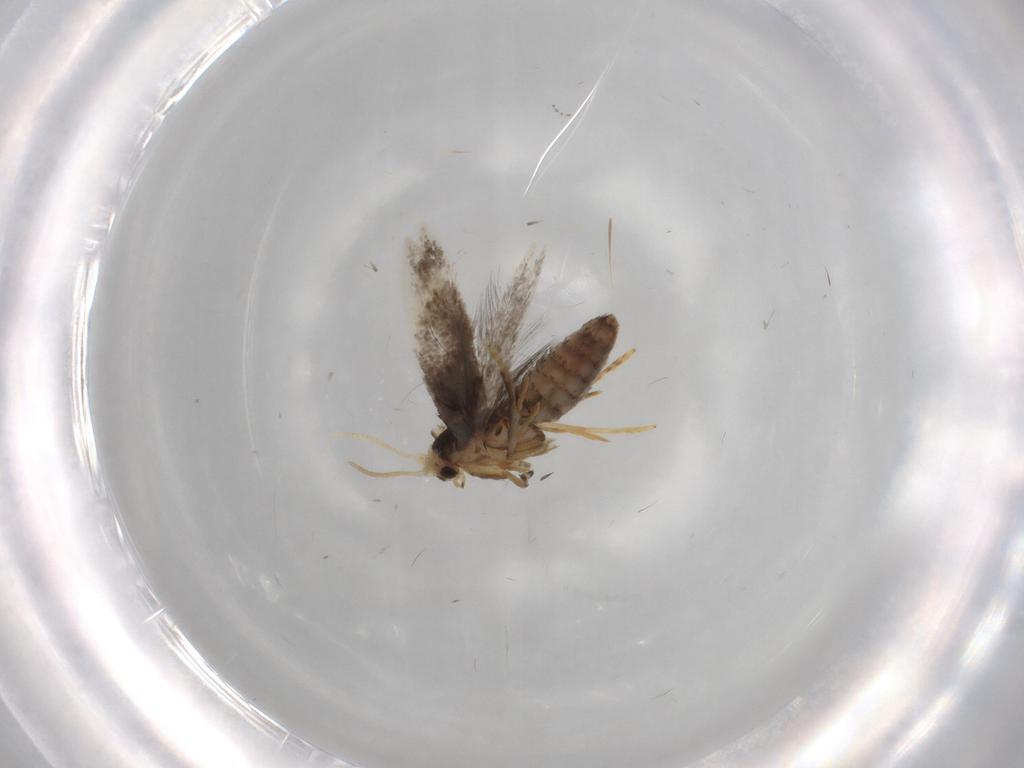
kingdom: Animalia
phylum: Arthropoda
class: Insecta
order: Lepidoptera
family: Nepticulidae
